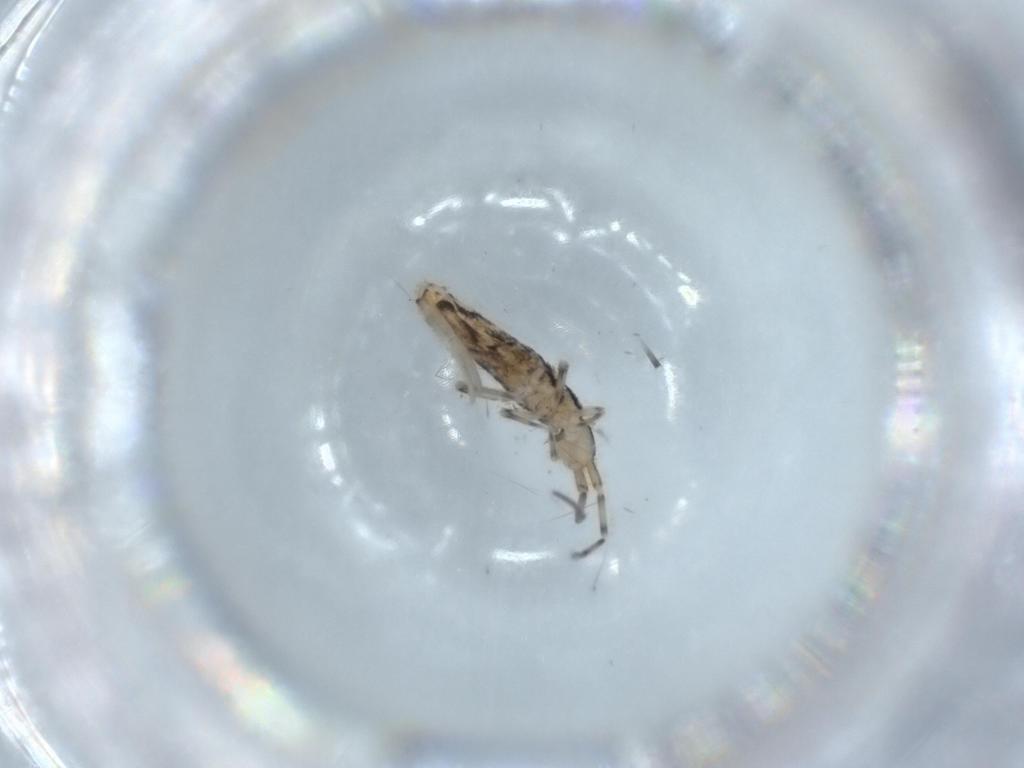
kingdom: Animalia
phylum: Arthropoda
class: Collembola
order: Entomobryomorpha
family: Entomobryidae
